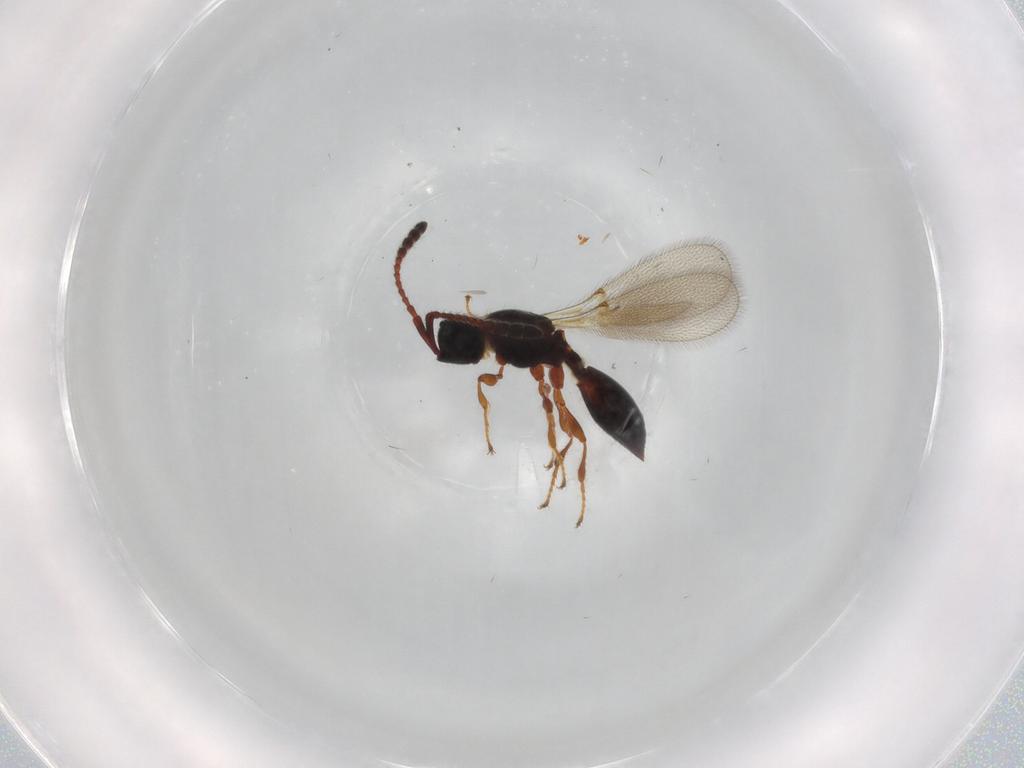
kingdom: Animalia
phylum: Arthropoda
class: Insecta
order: Hymenoptera
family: Diapriidae
